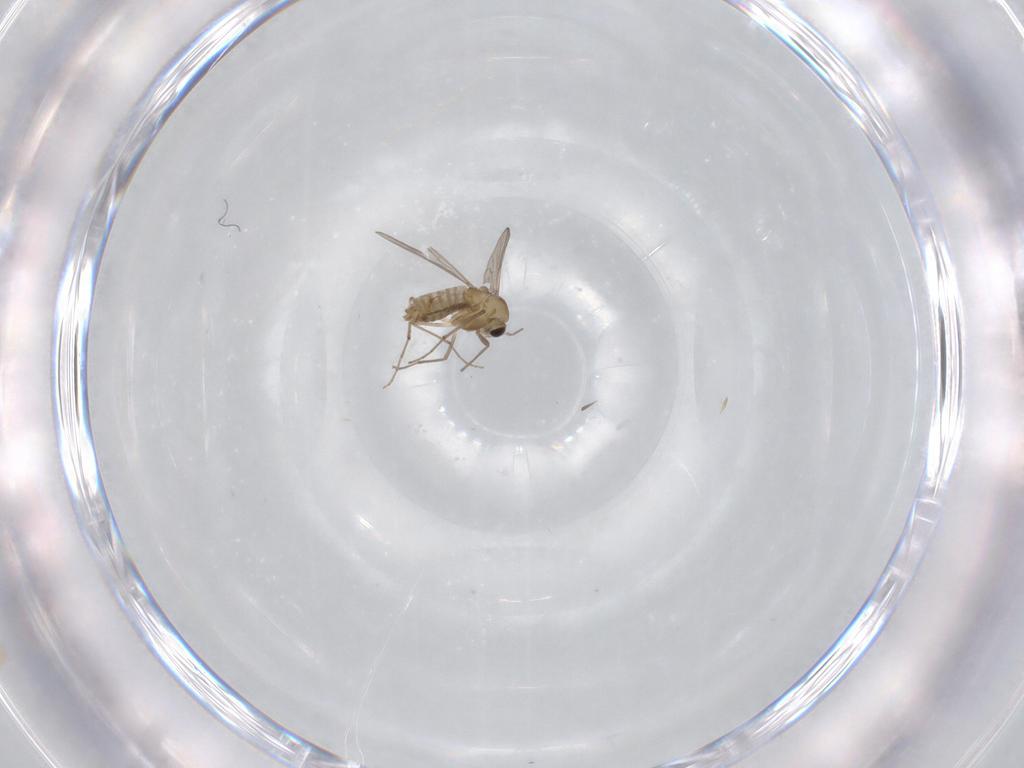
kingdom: Animalia
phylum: Arthropoda
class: Insecta
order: Diptera
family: Chironomidae
